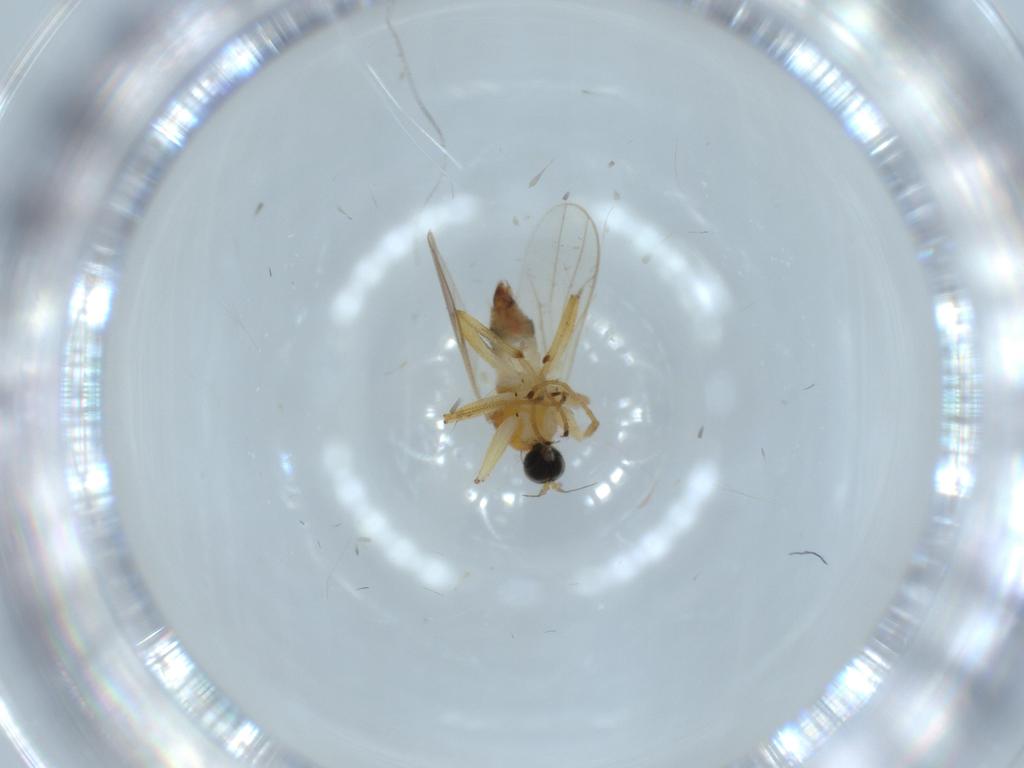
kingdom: Animalia
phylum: Arthropoda
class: Insecta
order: Diptera
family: Hybotidae
